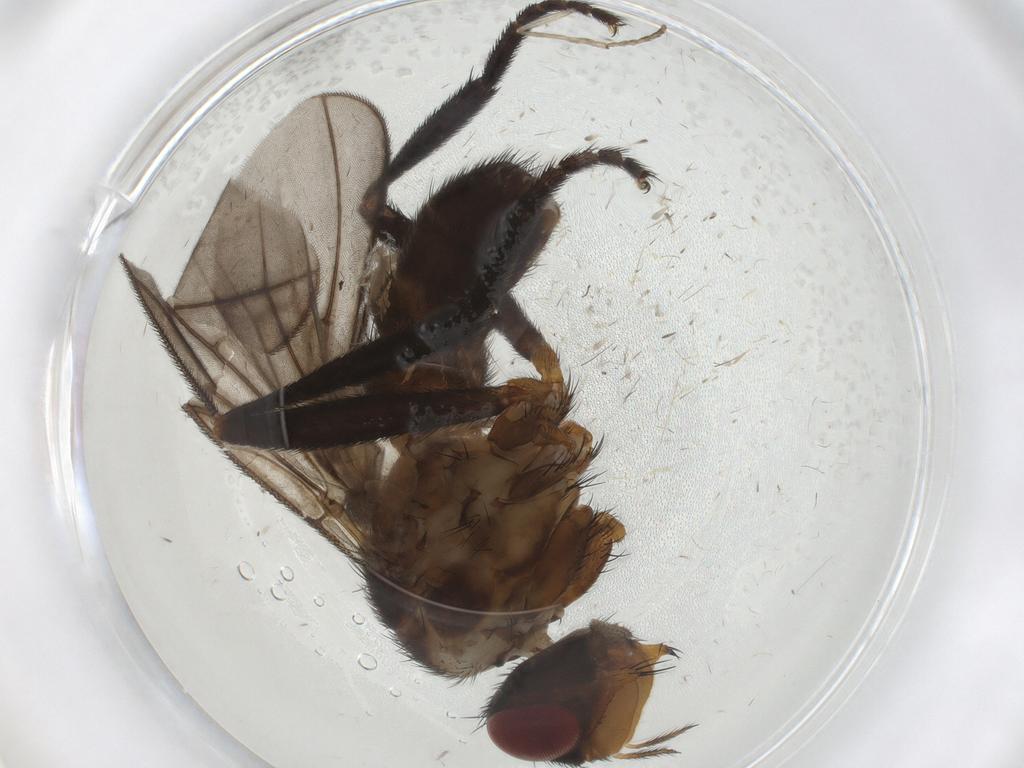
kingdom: Animalia
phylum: Arthropoda
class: Insecta
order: Diptera
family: Calliphoridae
